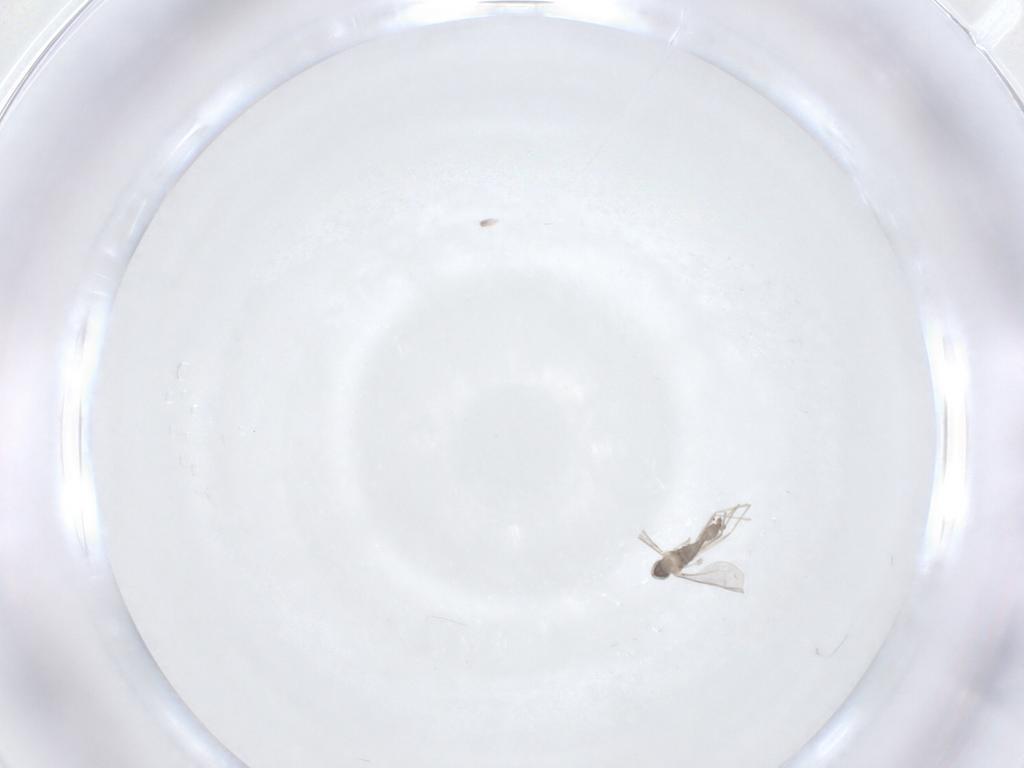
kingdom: Animalia
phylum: Arthropoda
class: Insecta
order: Diptera
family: Cecidomyiidae
